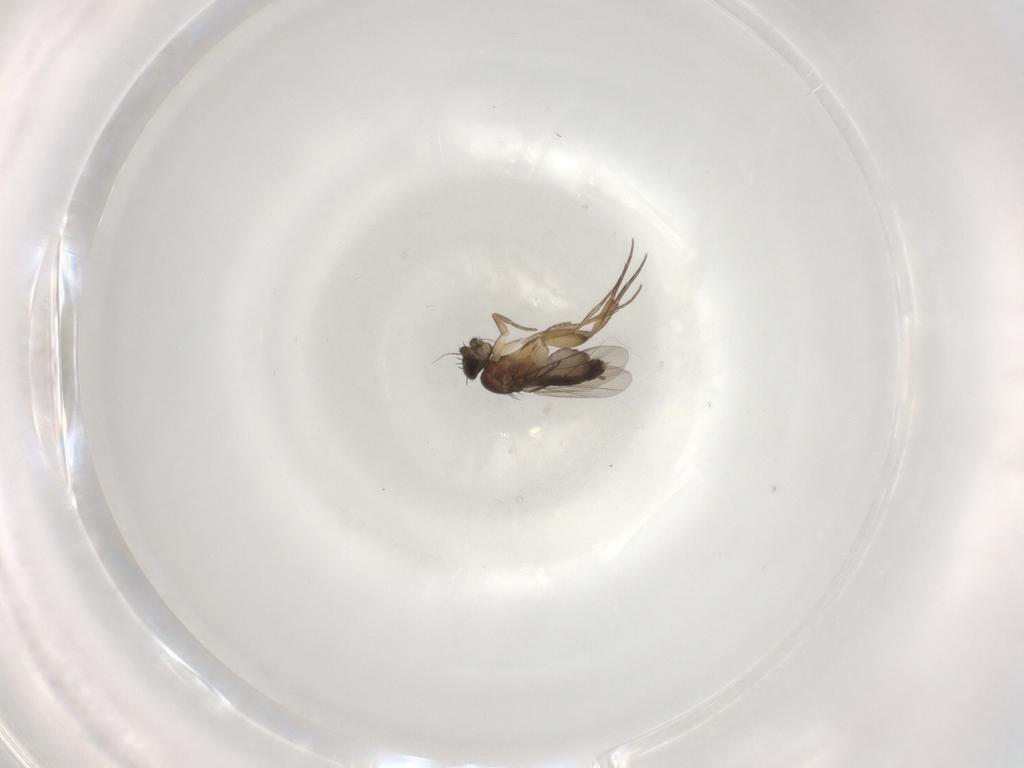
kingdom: Animalia
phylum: Arthropoda
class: Insecta
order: Diptera
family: Phoridae
